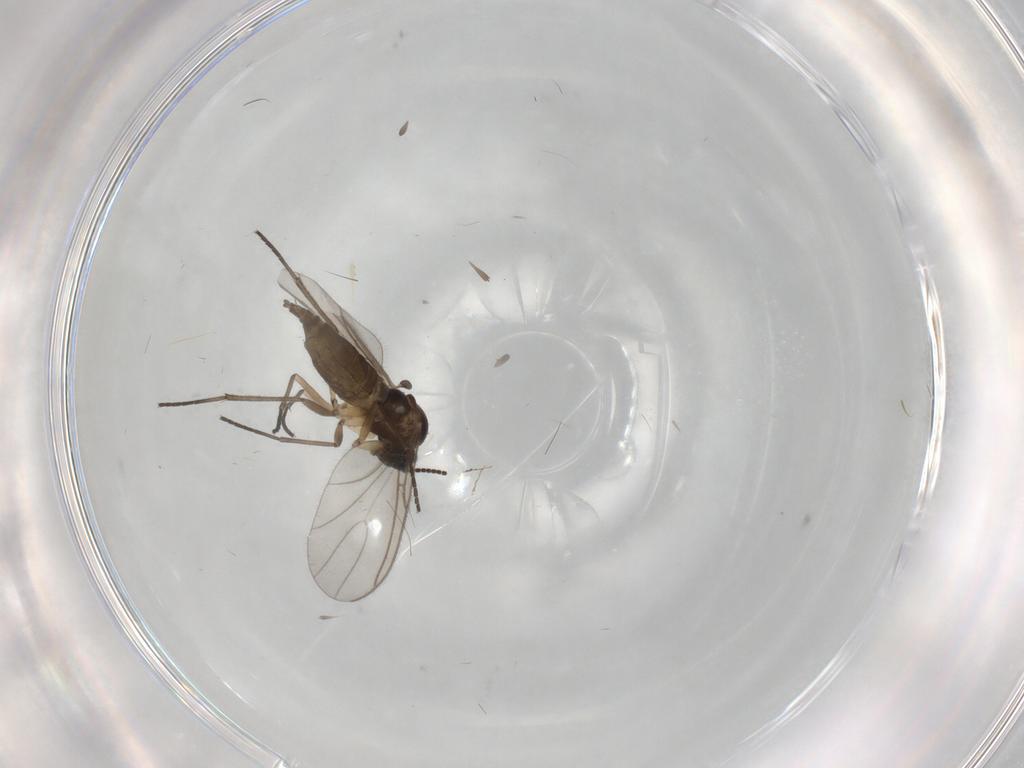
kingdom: Animalia
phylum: Arthropoda
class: Insecta
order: Diptera
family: Sciaridae
